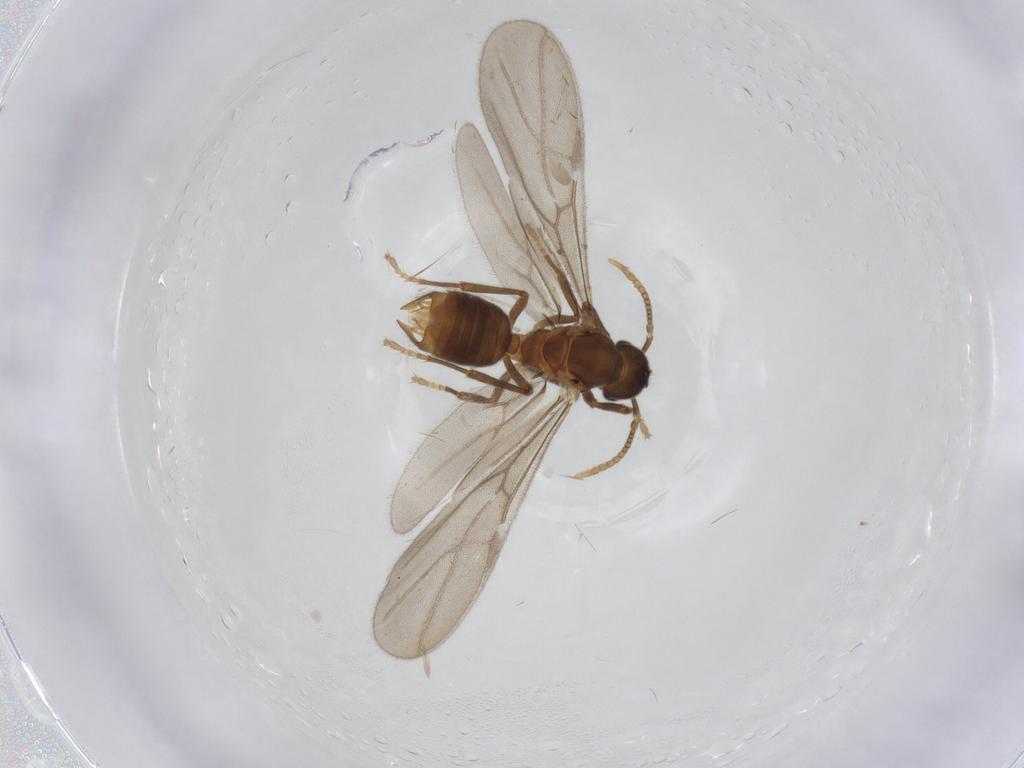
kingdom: Animalia
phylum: Arthropoda
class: Insecta
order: Hymenoptera
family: Formicidae
